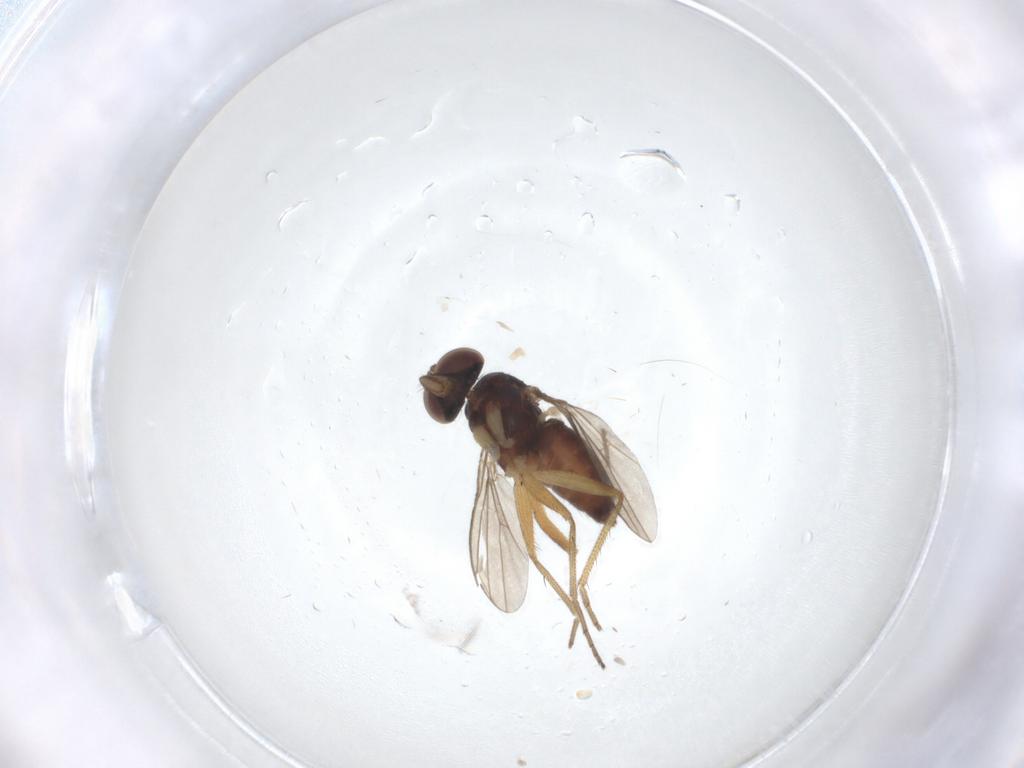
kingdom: Animalia
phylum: Arthropoda
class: Insecta
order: Diptera
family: Dolichopodidae
